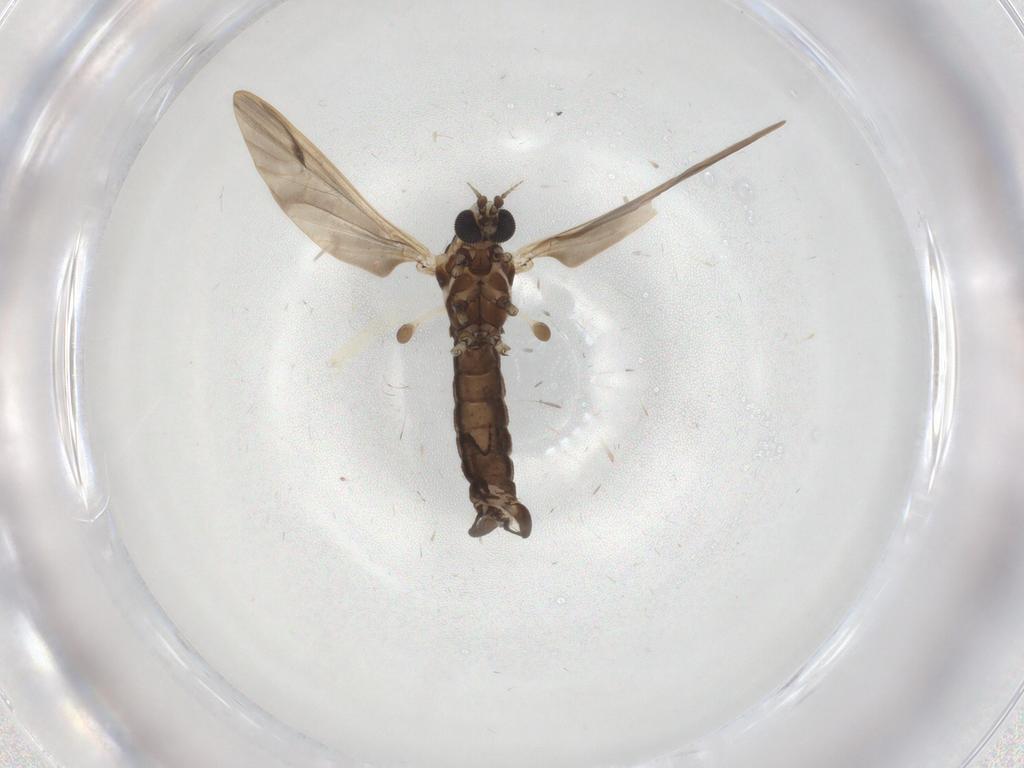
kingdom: Animalia
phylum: Arthropoda
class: Insecta
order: Diptera
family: Limoniidae
